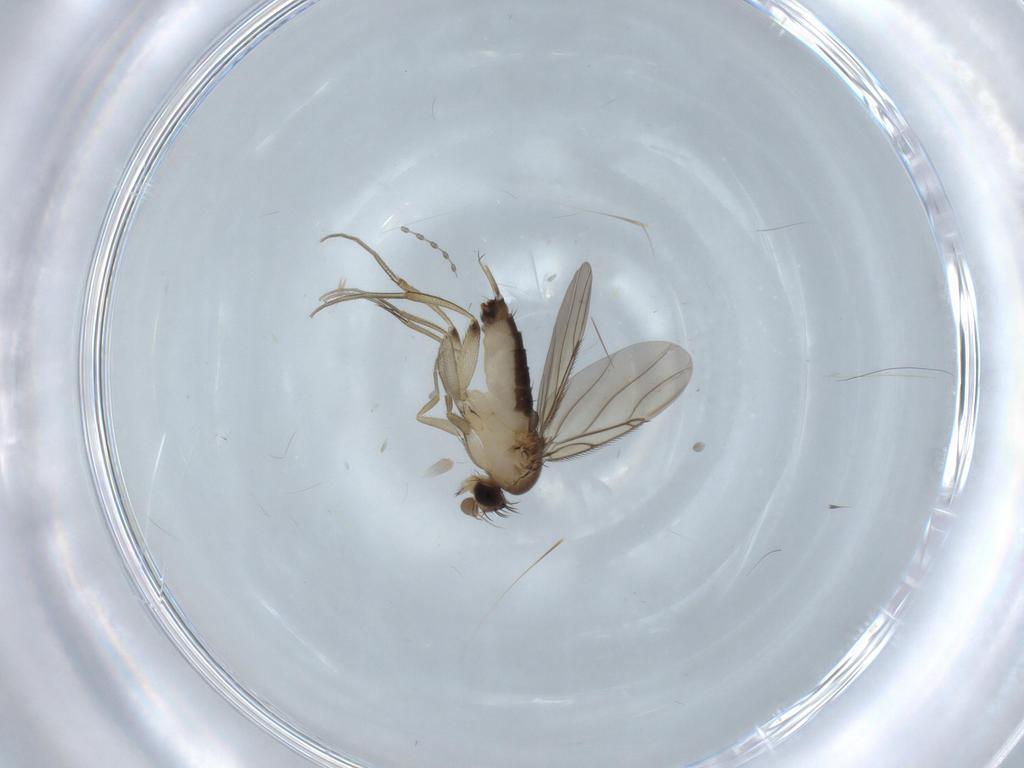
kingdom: Animalia
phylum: Arthropoda
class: Insecta
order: Diptera
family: Phoridae
